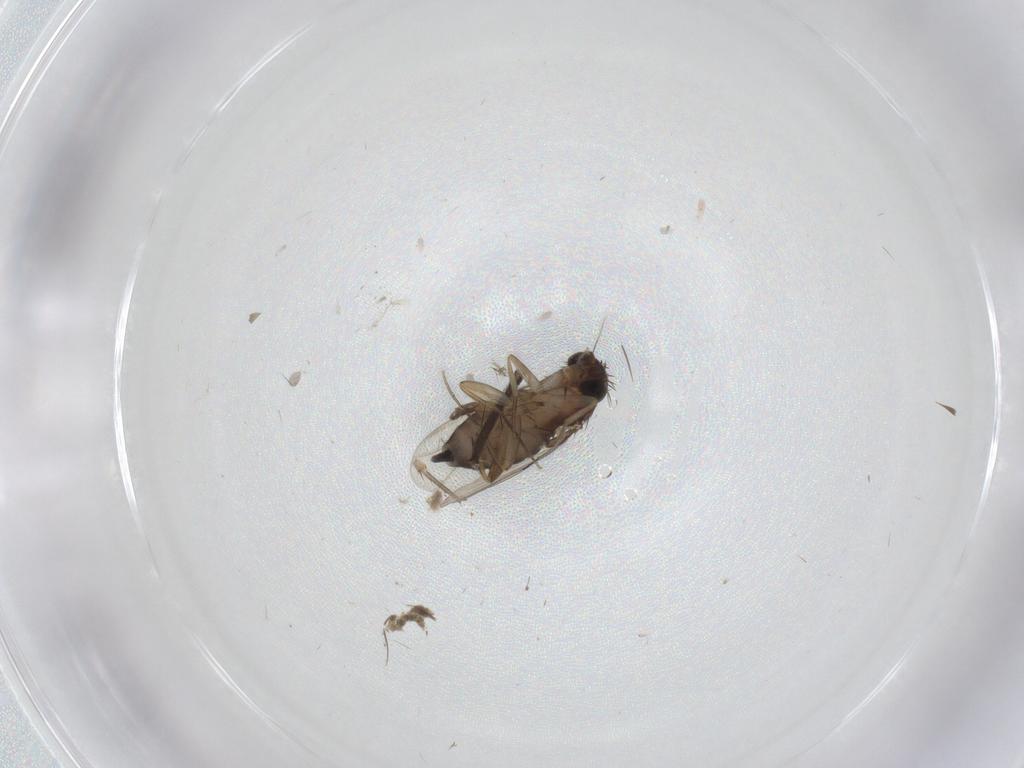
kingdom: Animalia
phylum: Arthropoda
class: Insecta
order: Diptera
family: Phoridae
